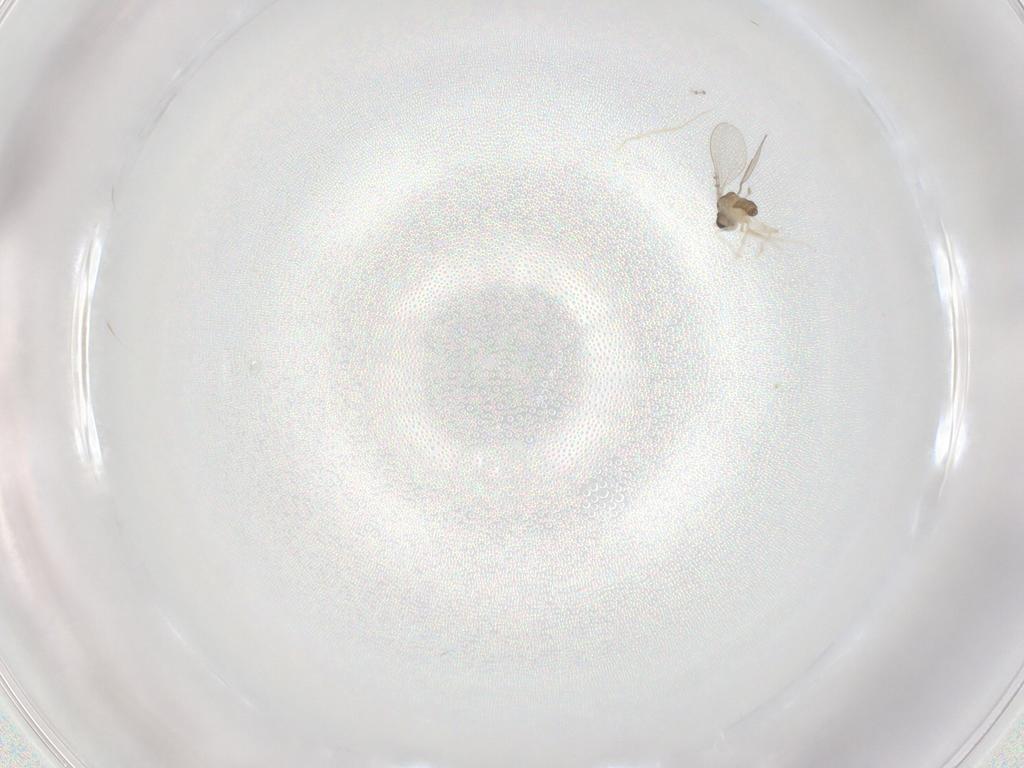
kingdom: Animalia
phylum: Arthropoda
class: Insecta
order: Diptera
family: Cecidomyiidae
